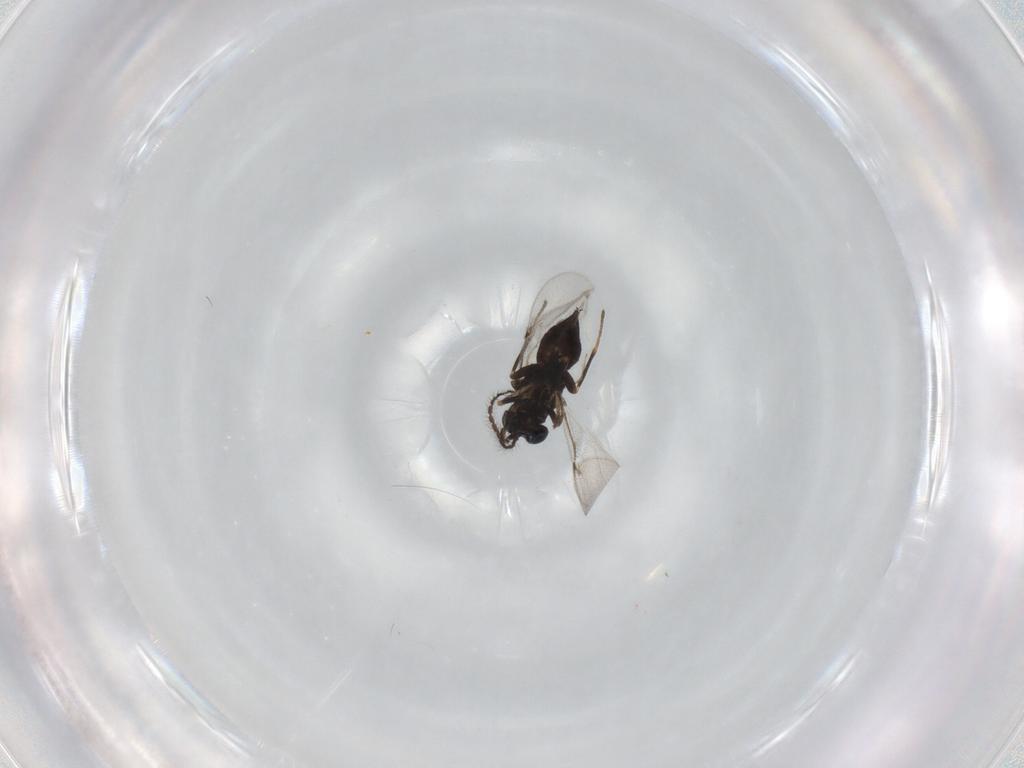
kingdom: Animalia
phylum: Arthropoda
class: Insecta
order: Hymenoptera
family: Encyrtidae
